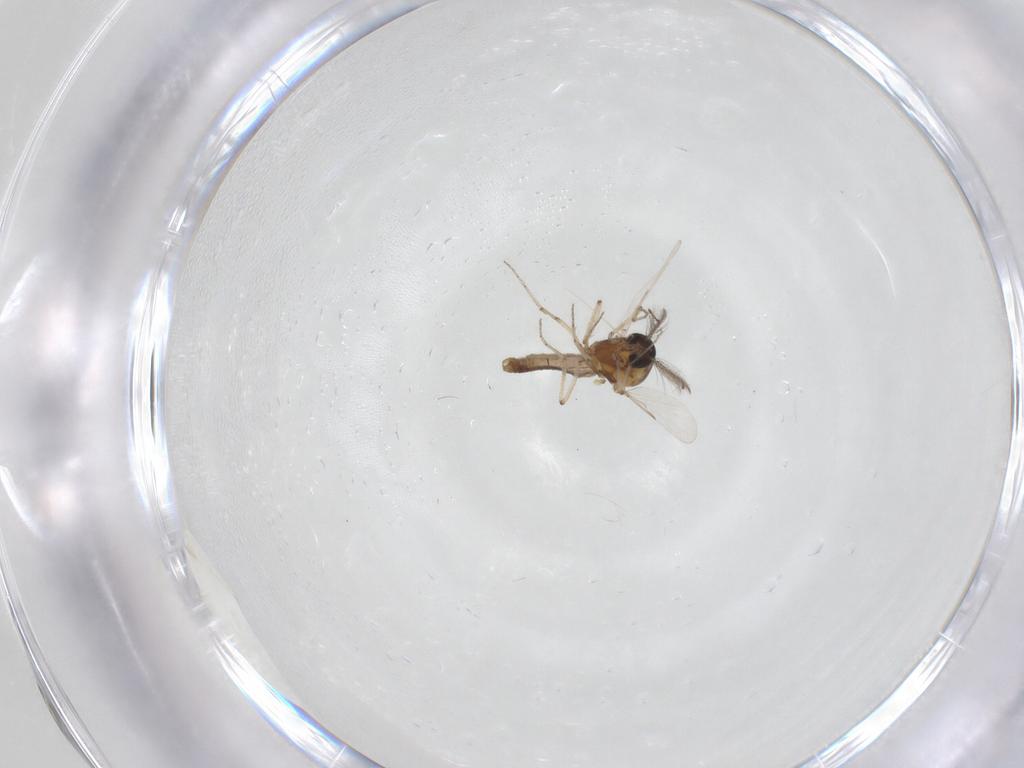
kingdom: Animalia
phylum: Arthropoda
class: Insecta
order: Diptera
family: Ceratopogonidae
